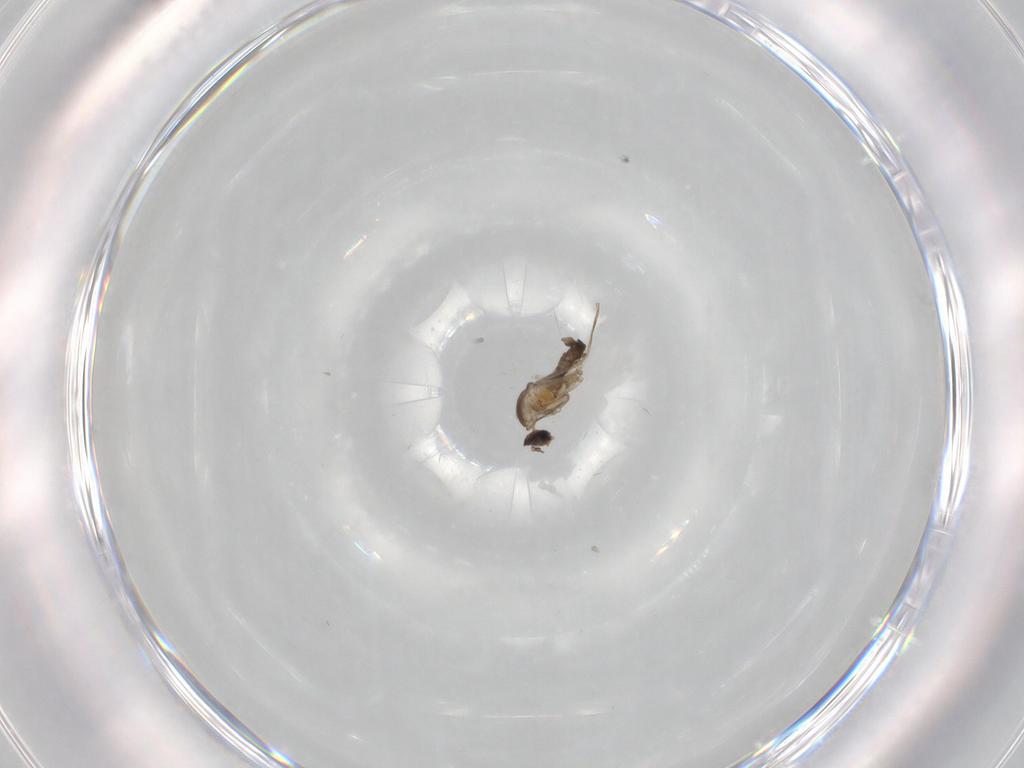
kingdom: Animalia
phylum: Arthropoda
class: Insecta
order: Diptera
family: Cecidomyiidae
